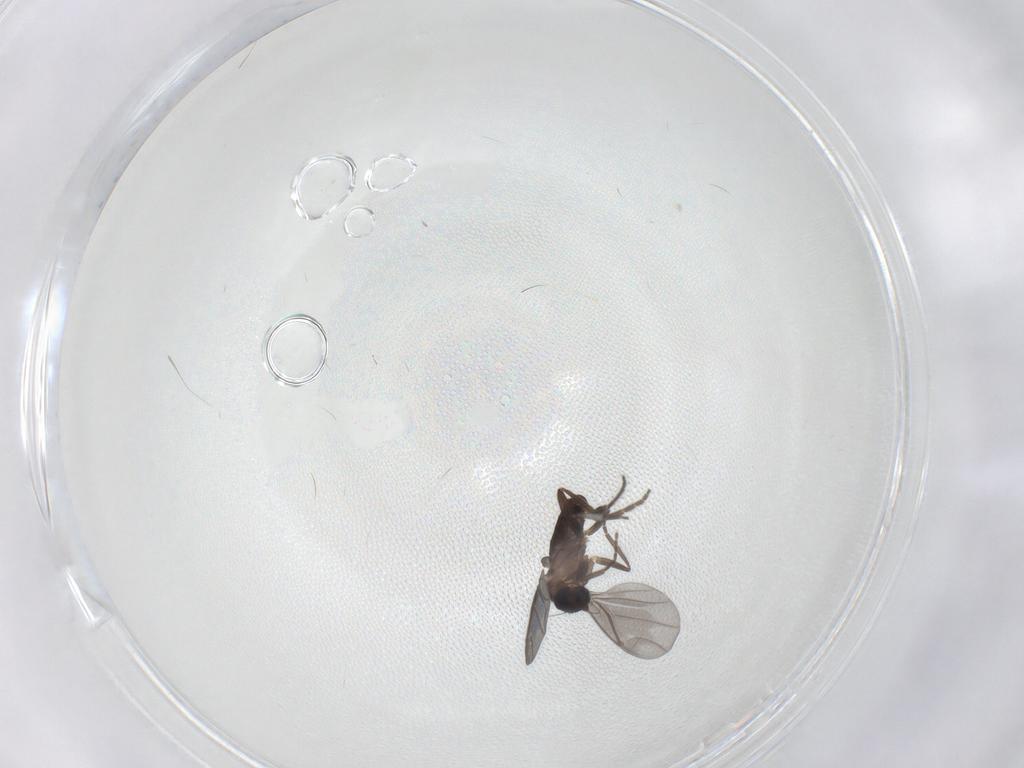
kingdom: Animalia
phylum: Arthropoda
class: Insecta
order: Diptera
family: Phoridae
